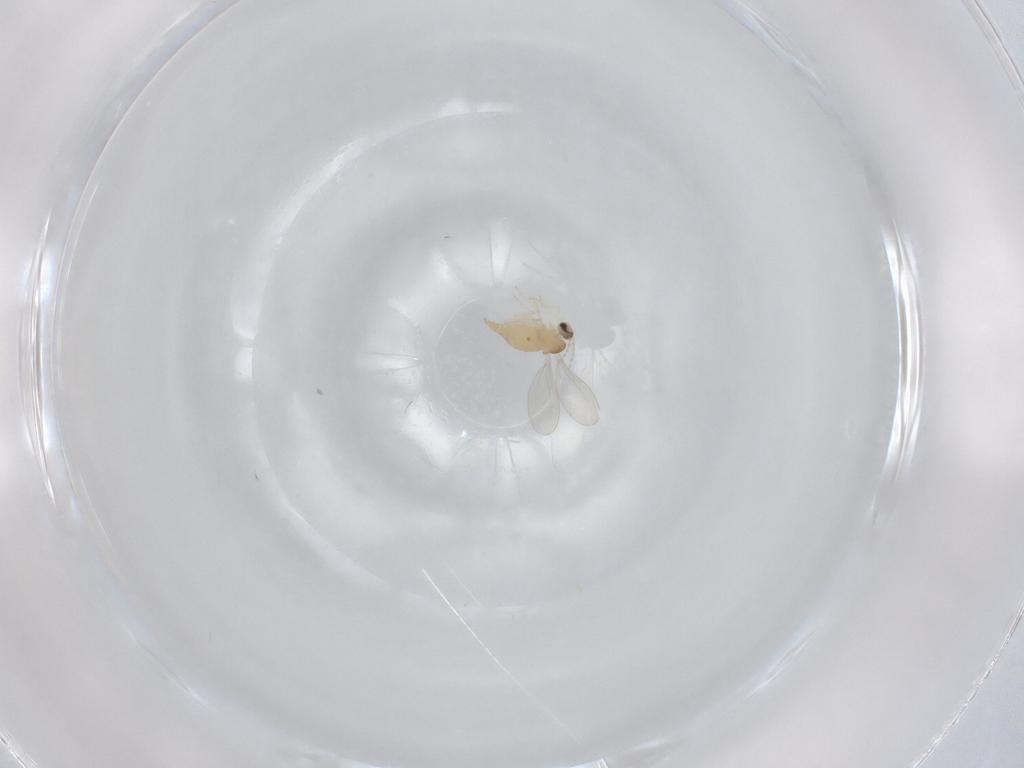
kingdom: Animalia
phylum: Arthropoda
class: Insecta
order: Diptera
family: Cecidomyiidae
